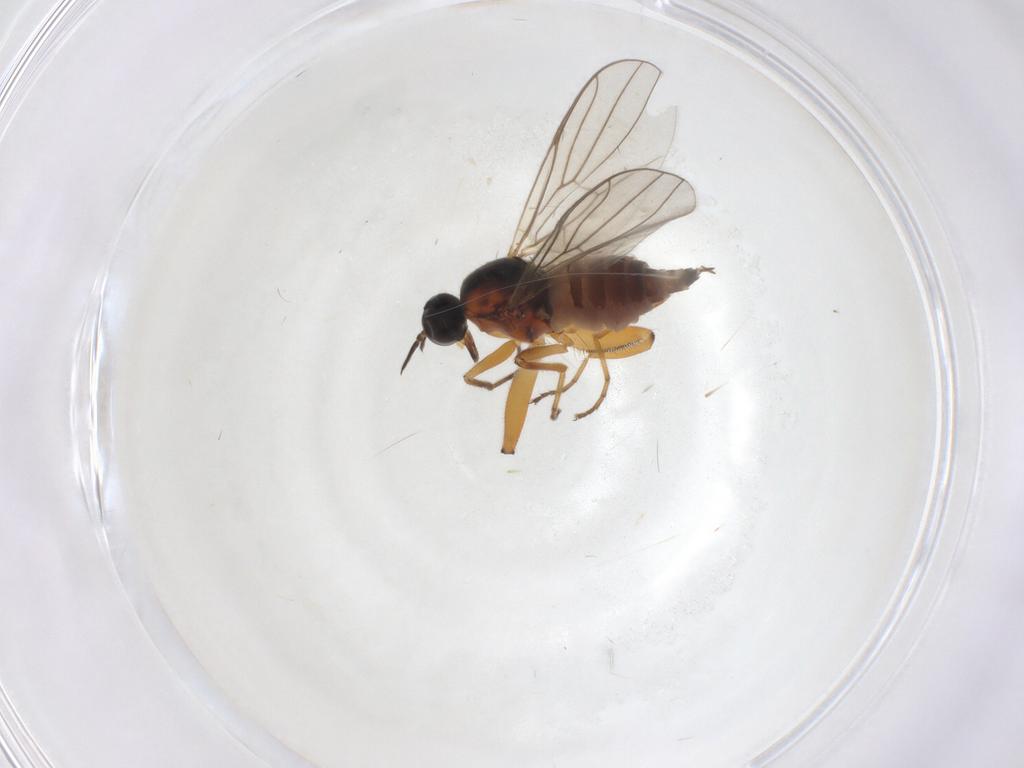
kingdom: Animalia
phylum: Arthropoda
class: Insecta
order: Diptera
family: Hybotidae
